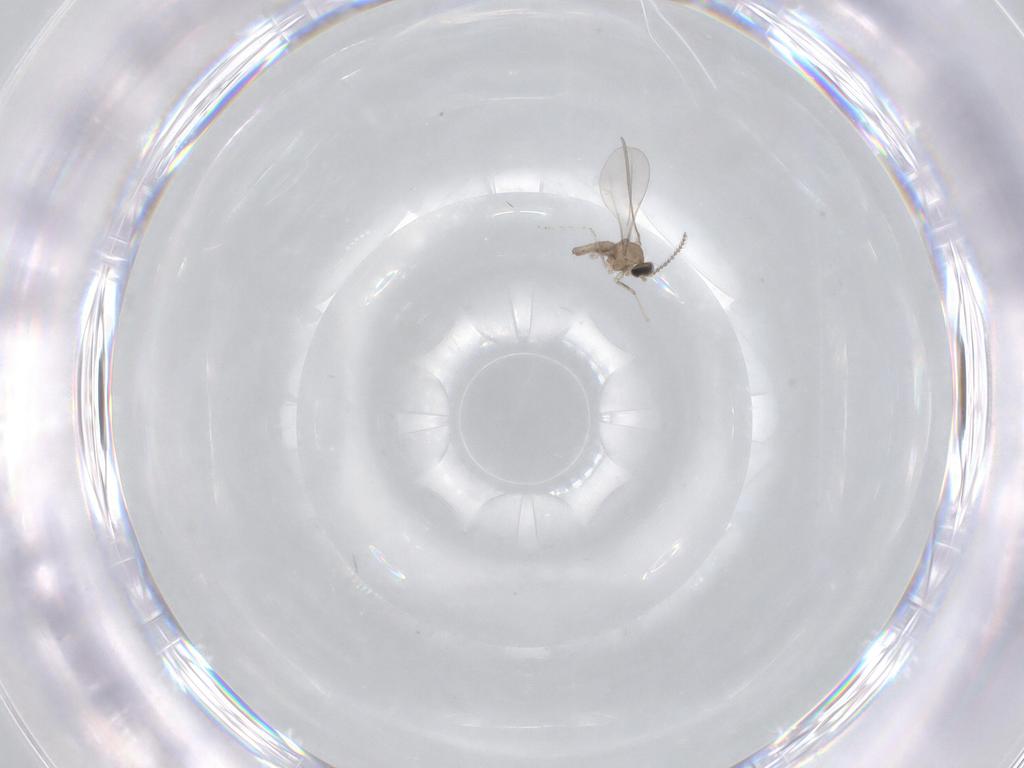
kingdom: Animalia
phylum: Arthropoda
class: Insecta
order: Diptera
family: Cecidomyiidae
